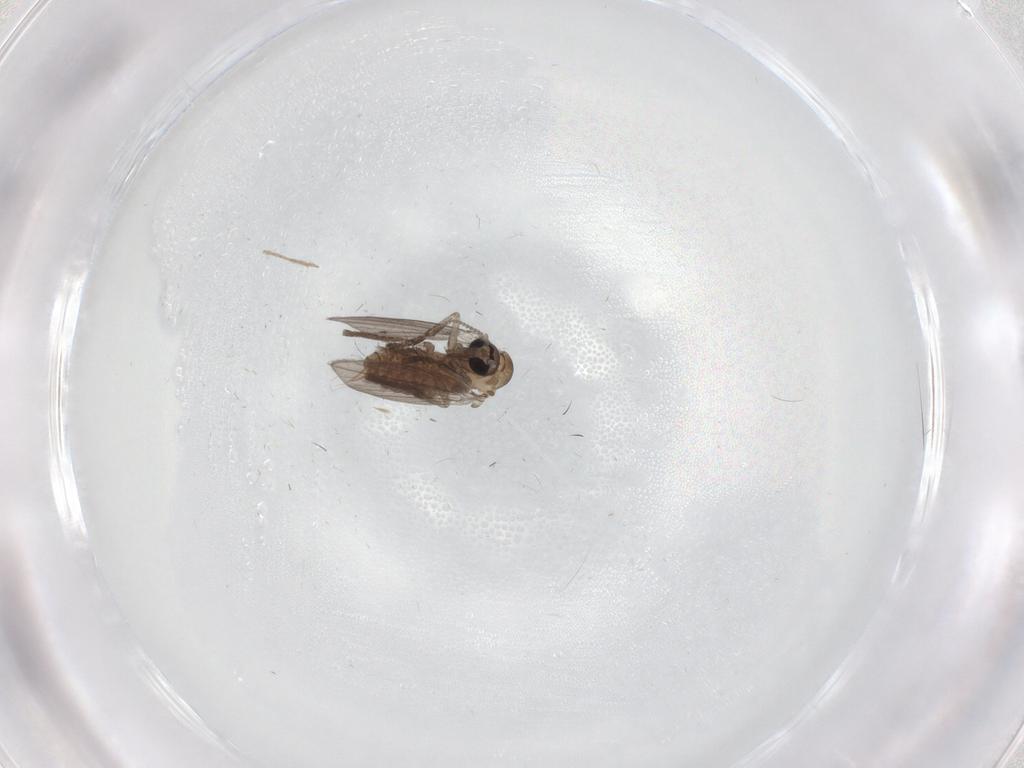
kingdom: Animalia
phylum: Arthropoda
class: Insecta
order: Diptera
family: Psychodidae
